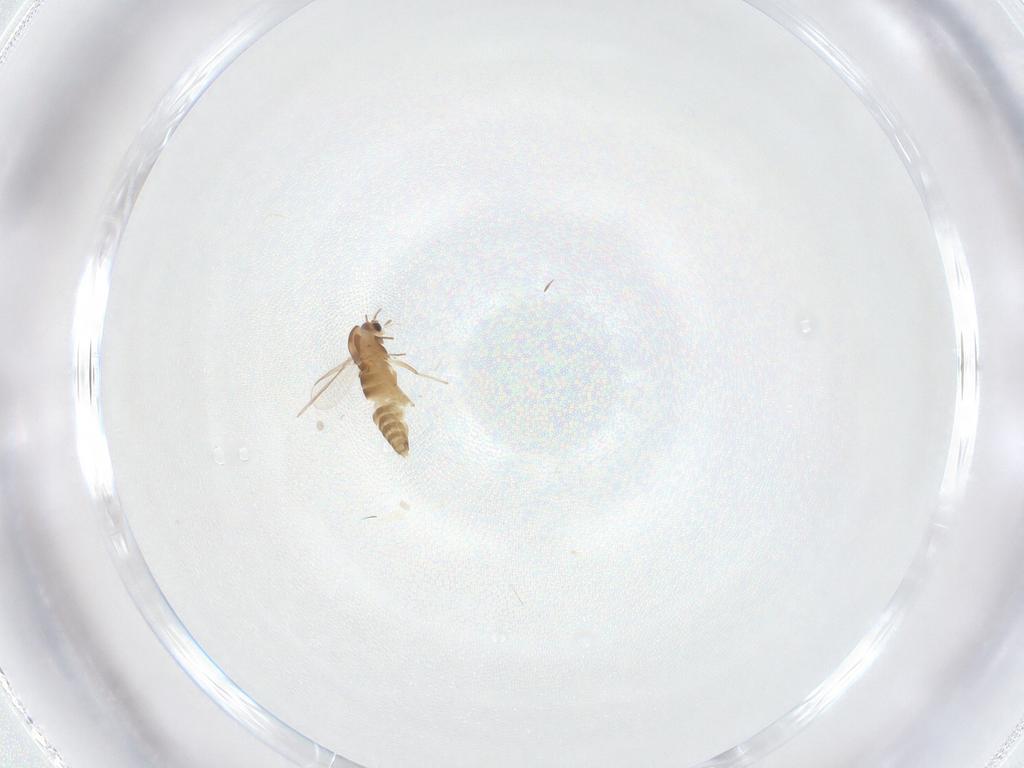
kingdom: Animalia
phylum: Arthropoda
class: Insecta
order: Diptera
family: Chironomidae
